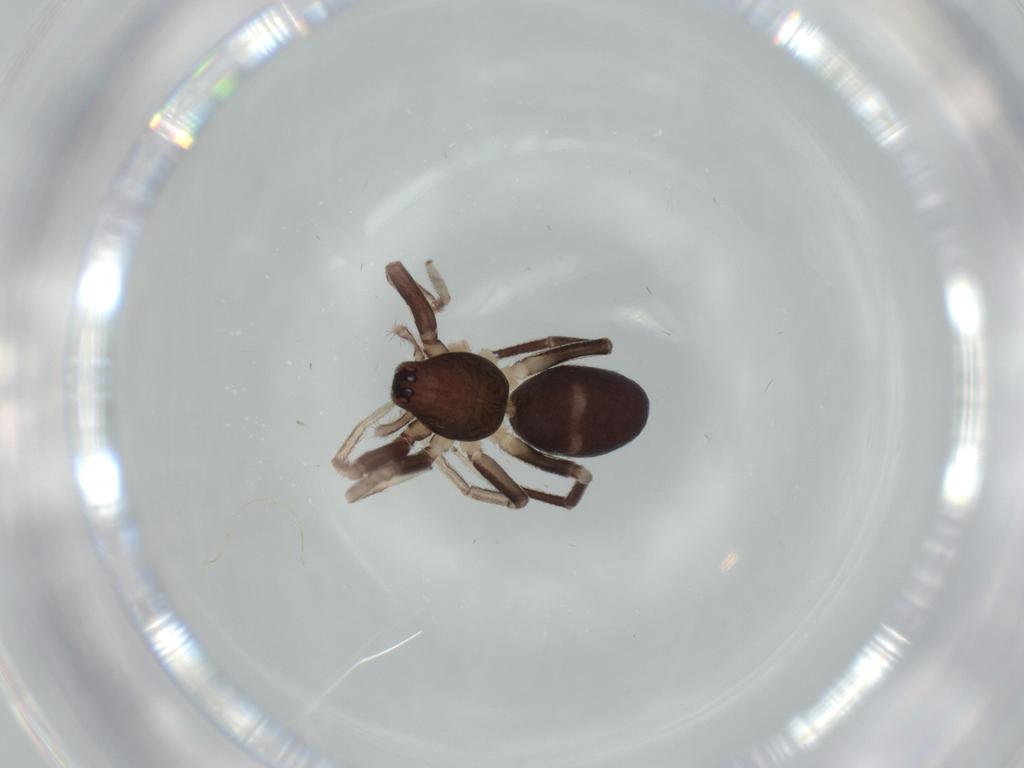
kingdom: Animalia
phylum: Arthropoda
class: Arachnida
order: Araneae
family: Corinnidae
